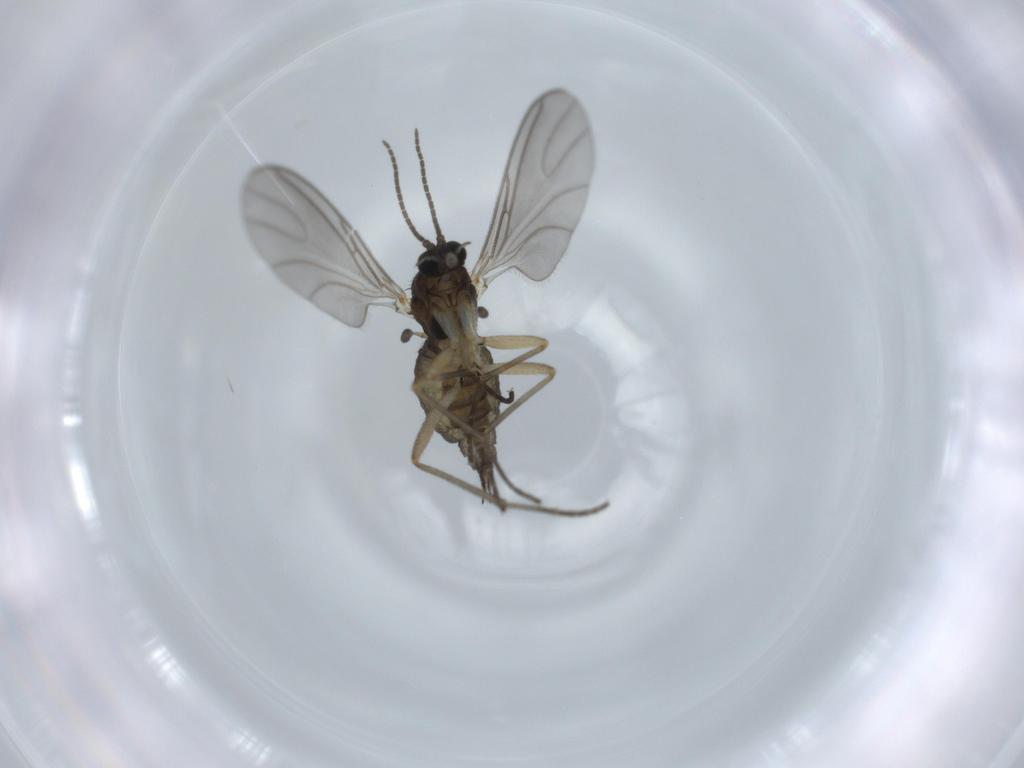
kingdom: Animalia
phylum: Arthropoda
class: Insecta
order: Diptera
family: Sciaridae
